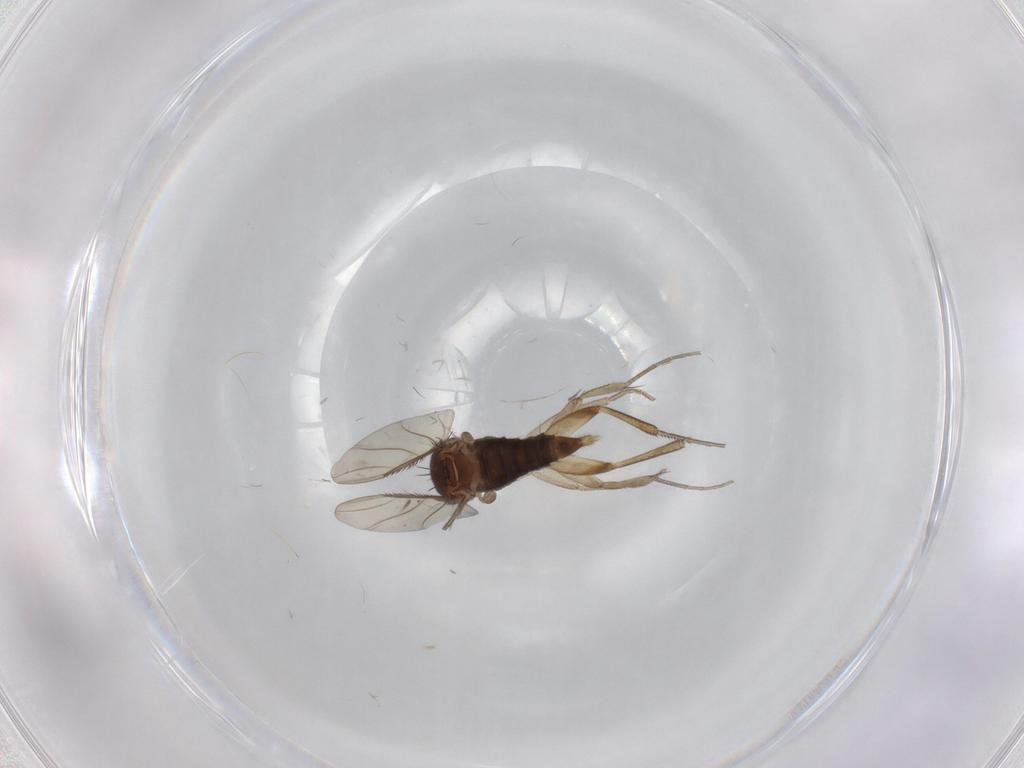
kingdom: Animalia
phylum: Arthropoda
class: Insecta
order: Diptera
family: Phoridae
